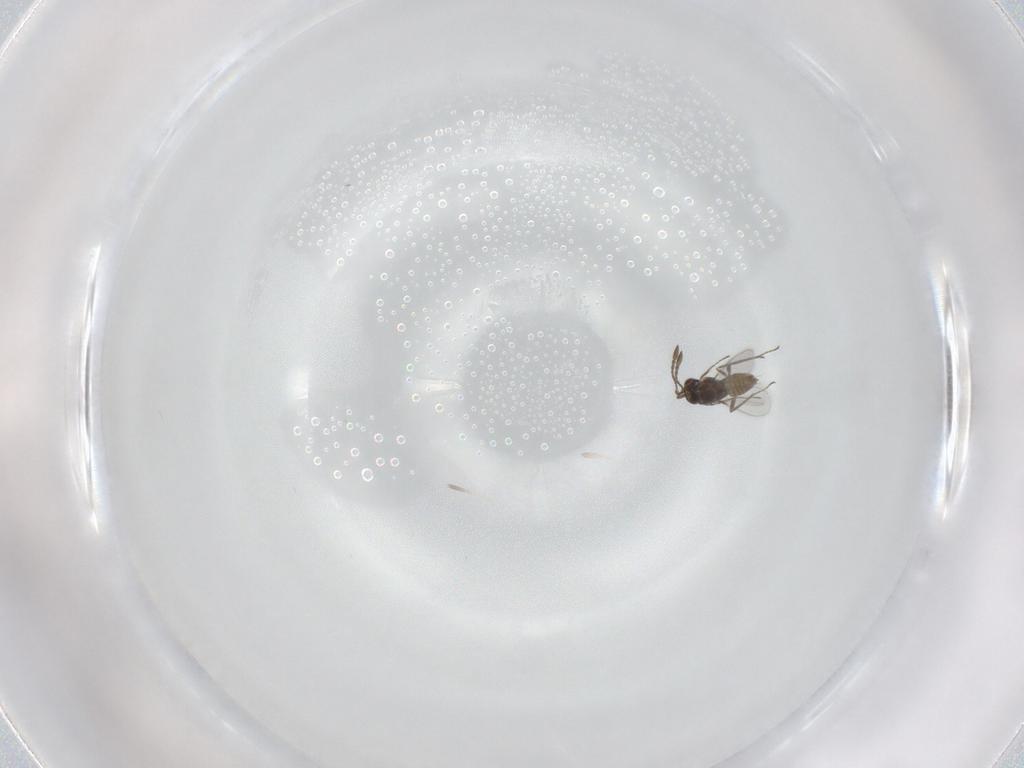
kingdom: Animalia
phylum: Arthropoda
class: Insecta
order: Hymenoptera
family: Mymaridae
